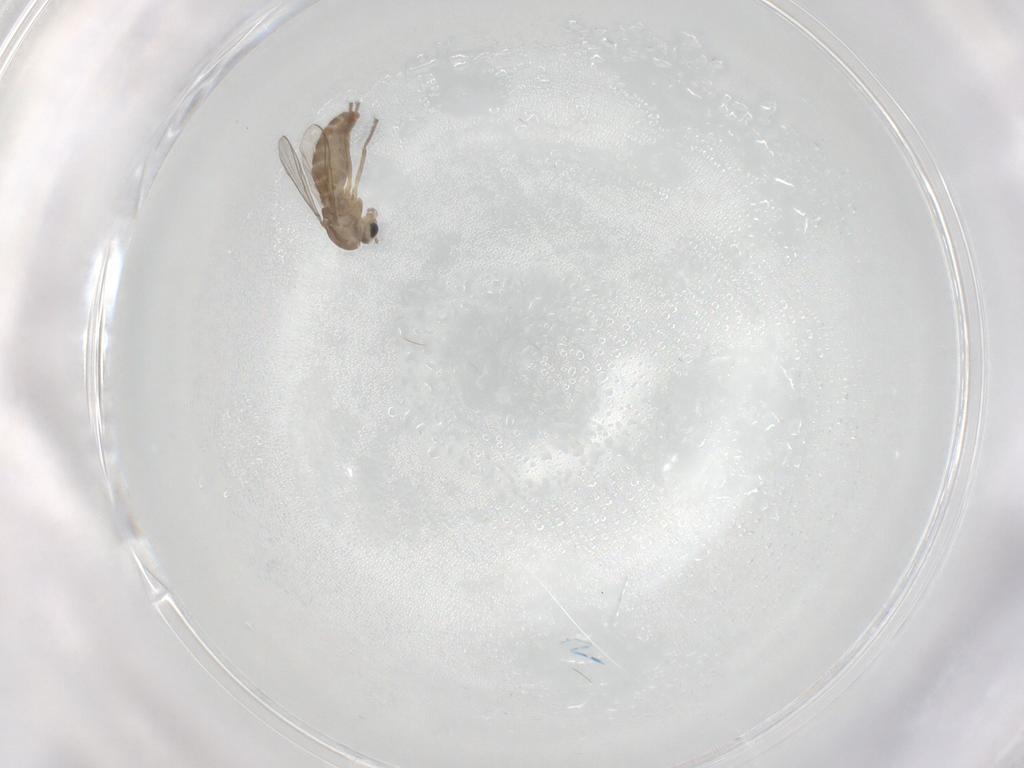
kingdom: Animalia
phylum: Arthropoda
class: Insecta
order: Diptera
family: Chironomidae
